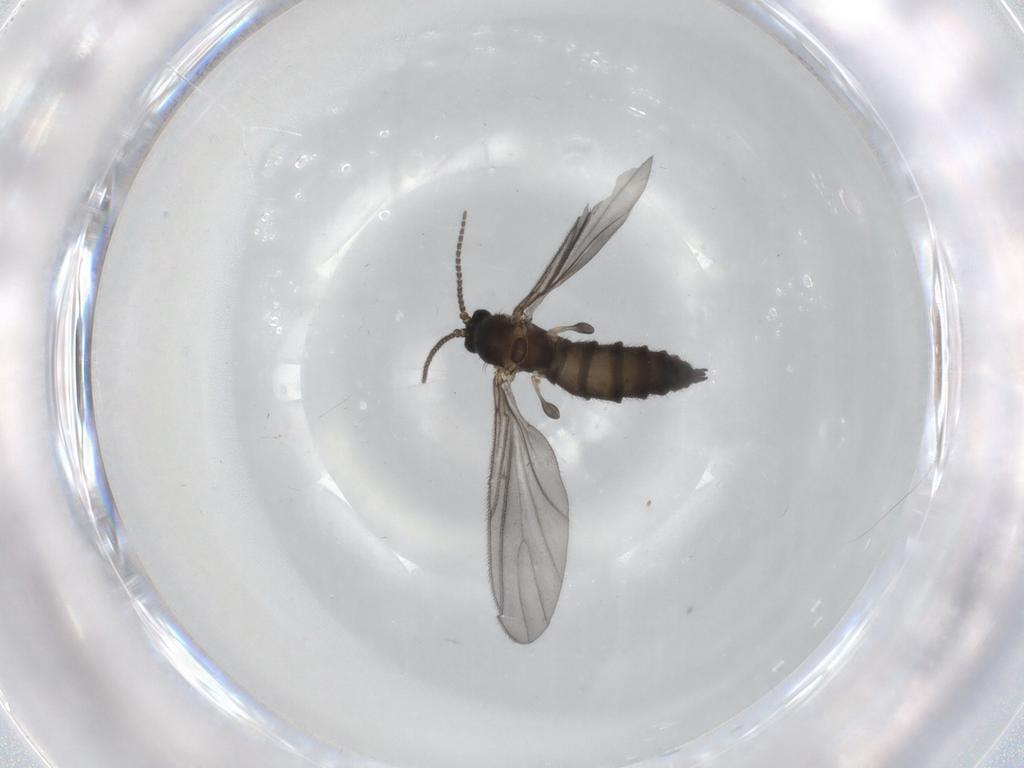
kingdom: Animalia
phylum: Arthropoda
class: Insecta
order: Diptera
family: Sciaridae
